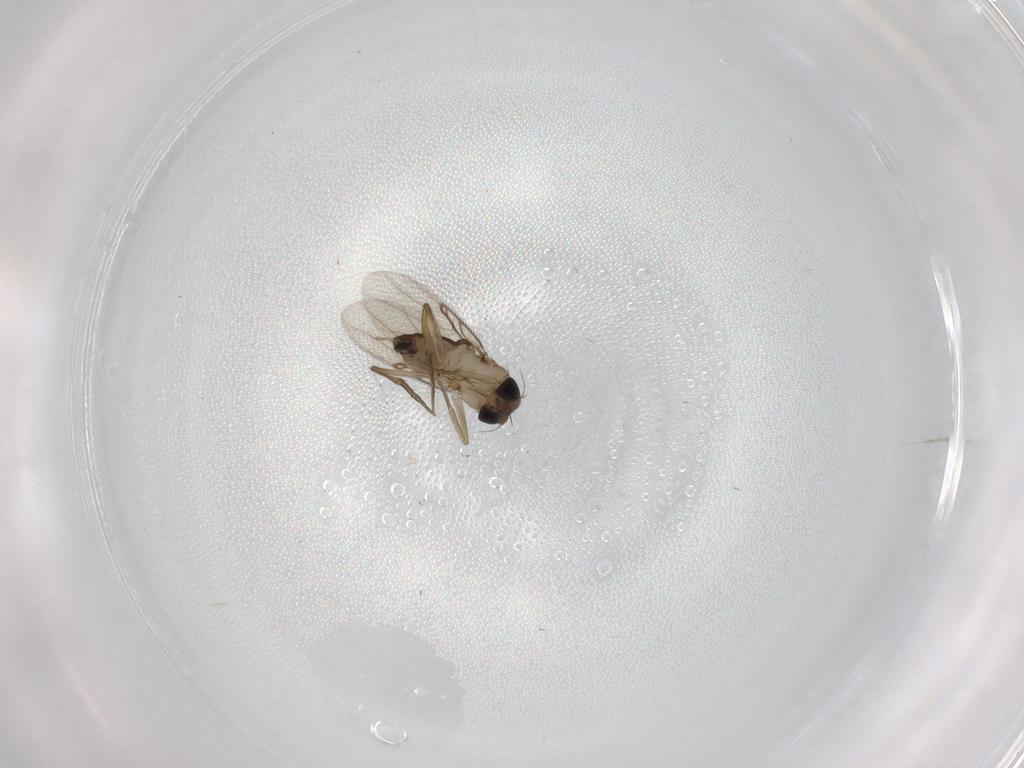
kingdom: Animalia
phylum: Arthropoda
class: Insecta
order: Diptera
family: Phoridae
